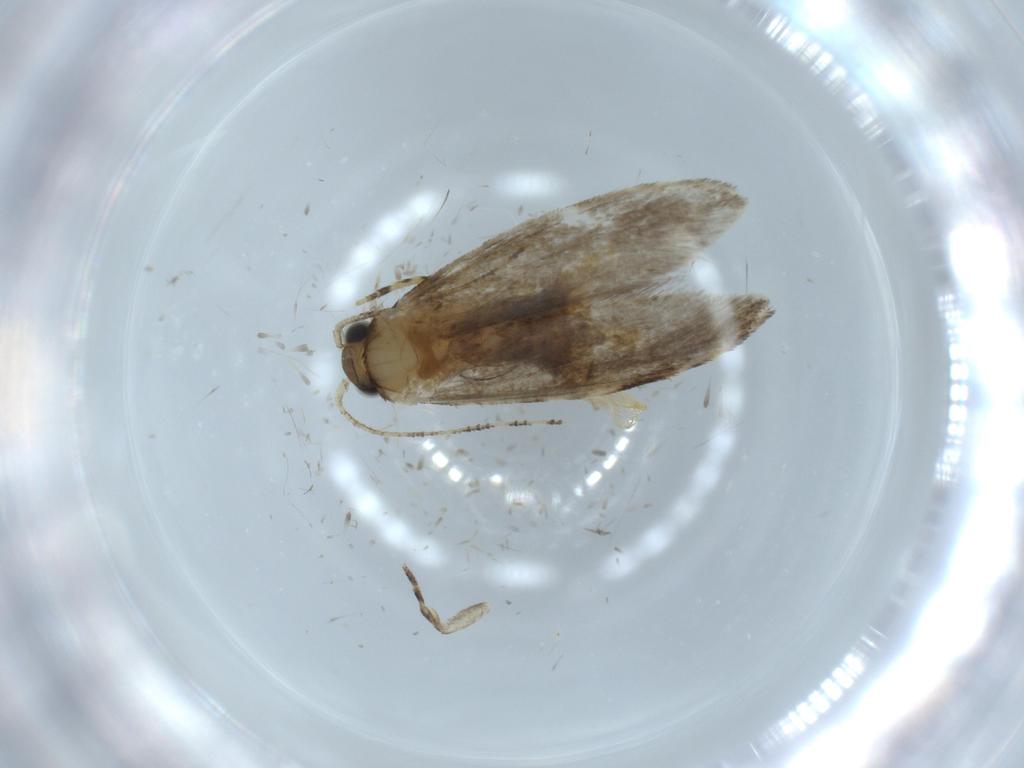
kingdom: Animalia
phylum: Arthropoda
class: Insecta
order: Lepidoptera
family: Tineidae
